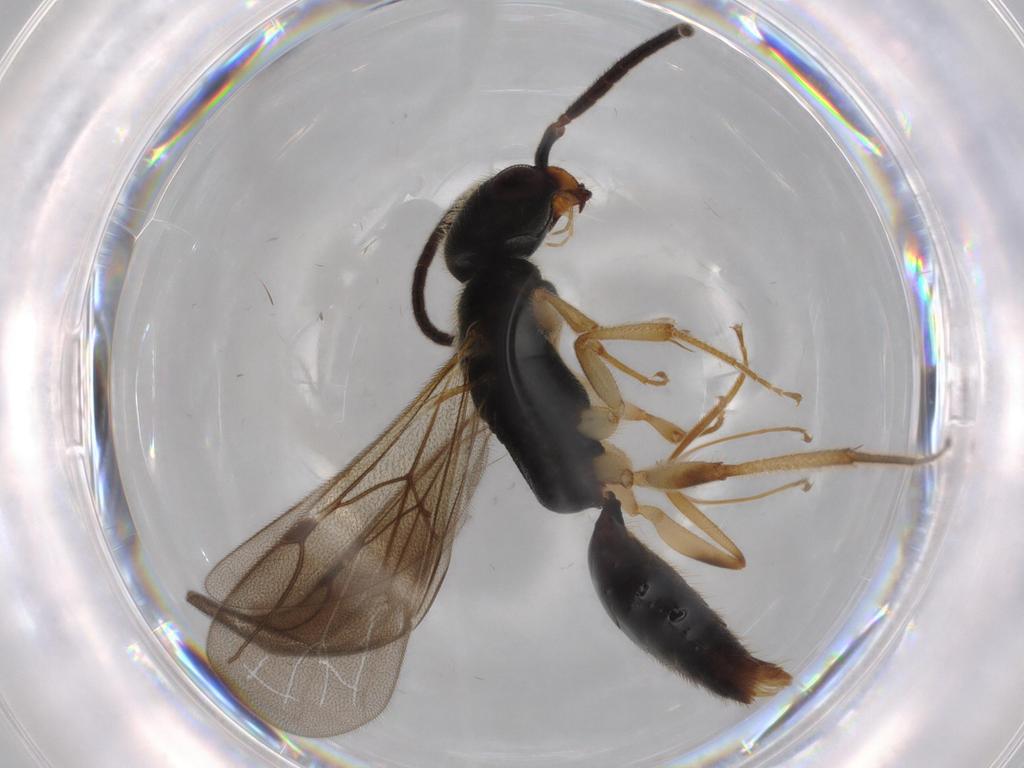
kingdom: Animalia
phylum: Arthropoda
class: Insecta
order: Hymenoptera
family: Bethylidae
